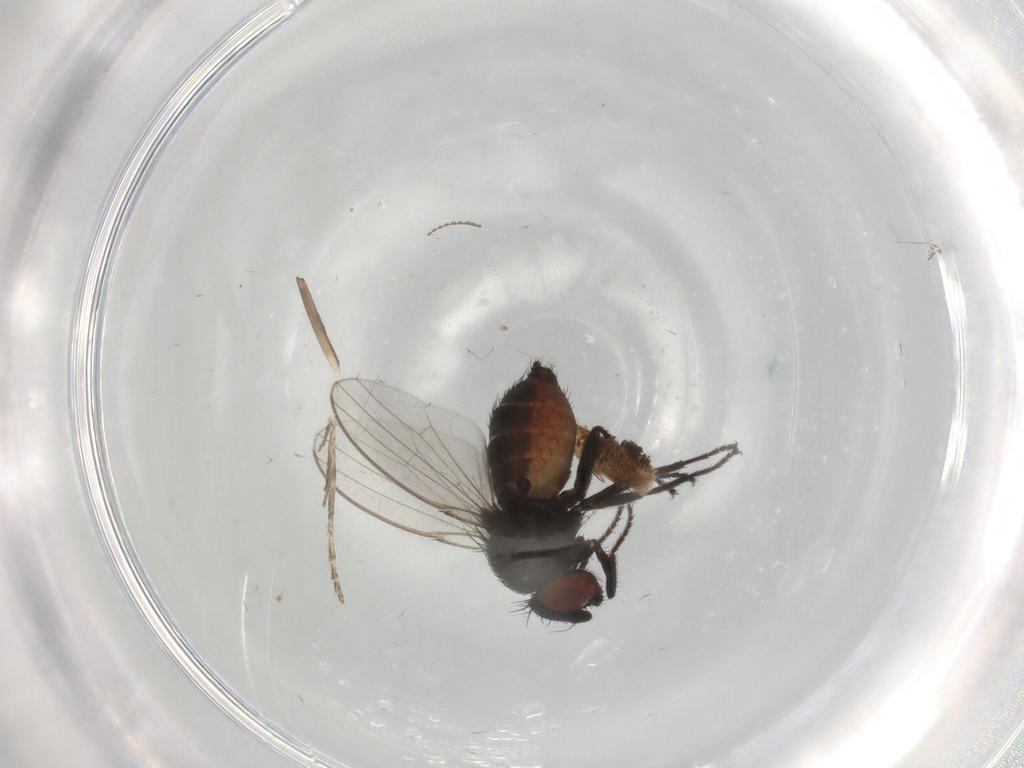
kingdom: Animalia
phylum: Arthropoda
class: Insecta
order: Diptera
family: Milichiidae
